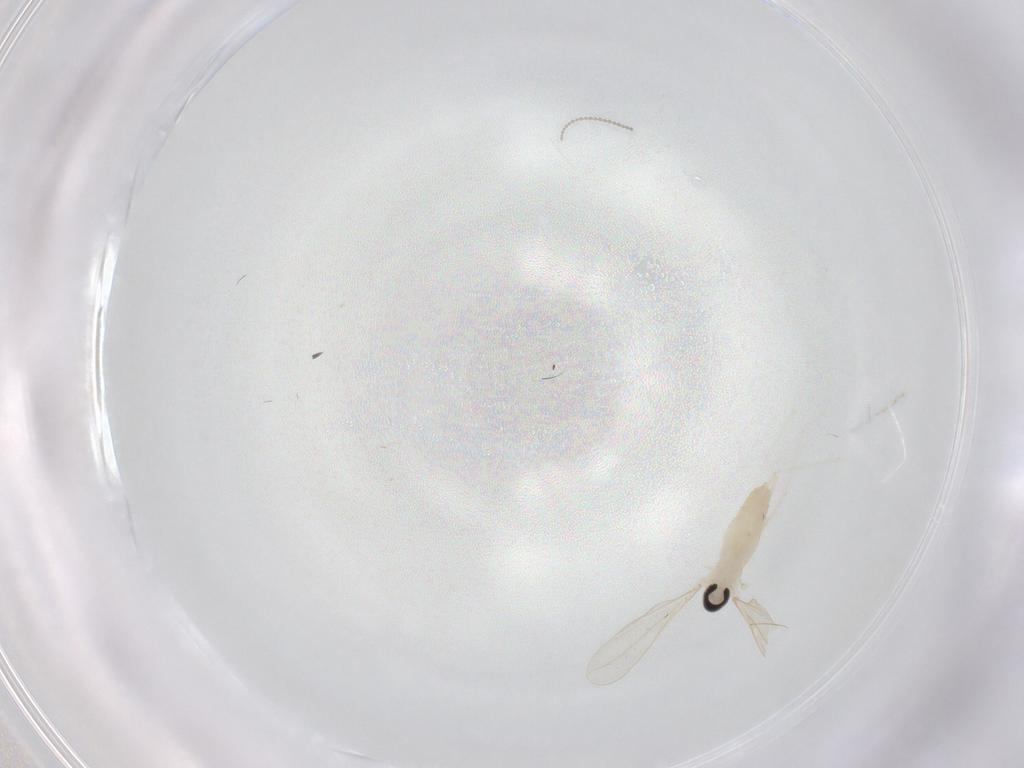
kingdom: Animalia
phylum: Arthropoda
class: Insecta
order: Diptera
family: Cecidomyiidae
